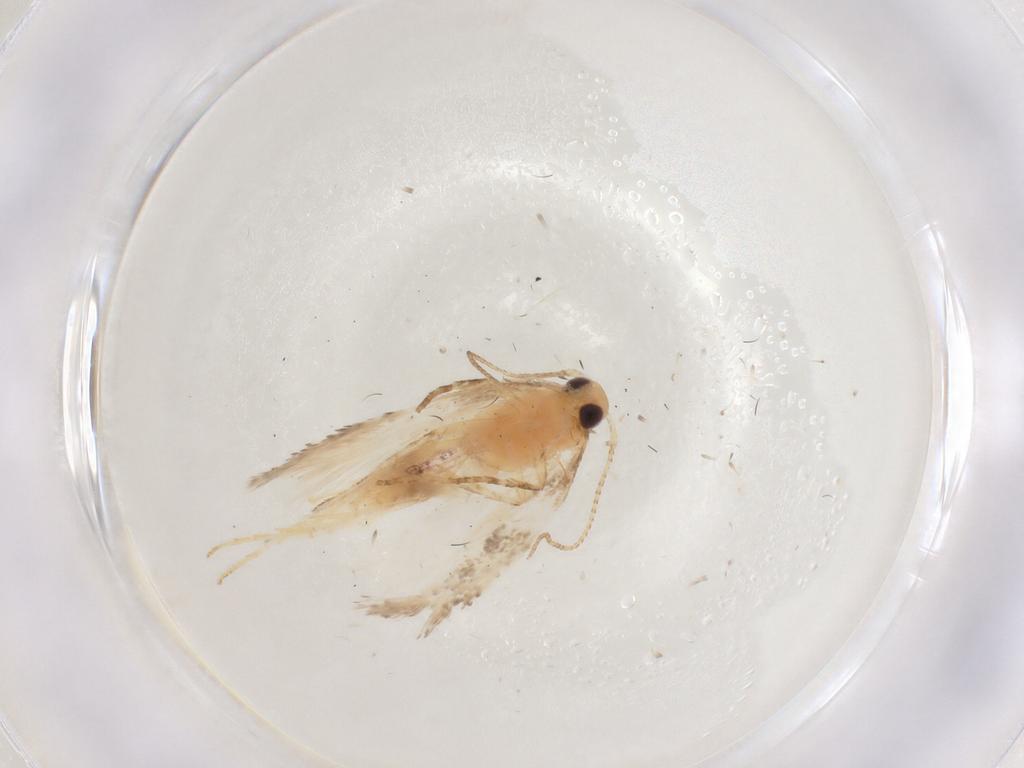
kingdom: Animalia
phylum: Arthropoda
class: Insecta
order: Lepidoptera
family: Gelechiidae
